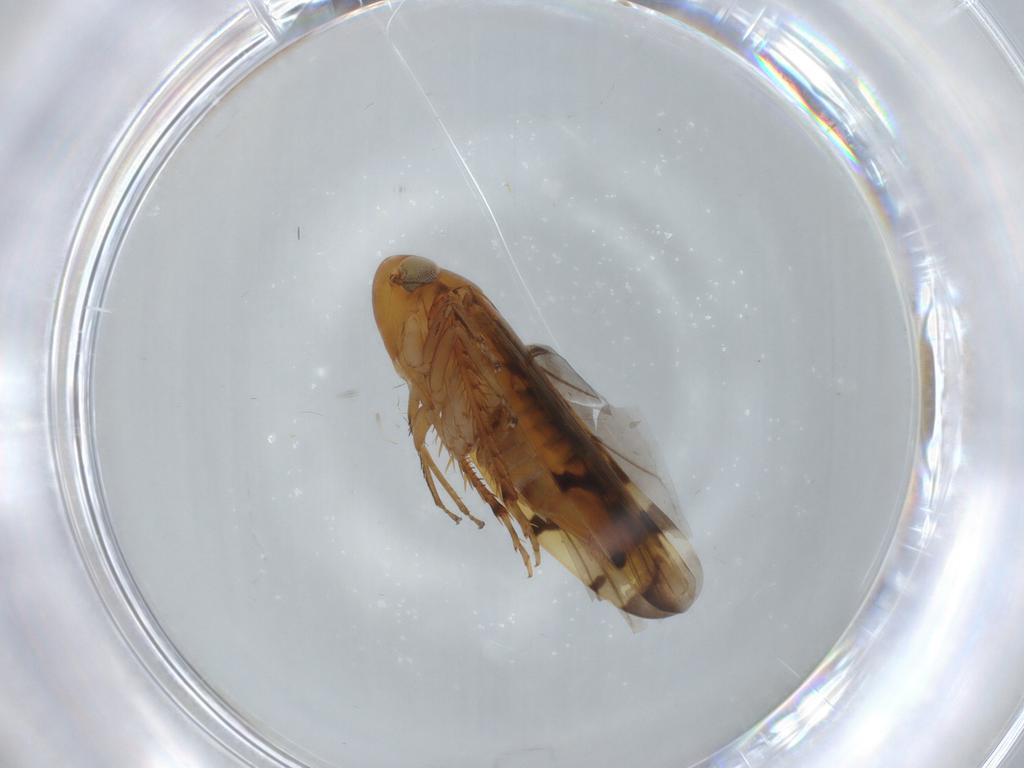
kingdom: Animalia
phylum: Arthropoda
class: Insecta
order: Hemiptera
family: Cicadellidae
